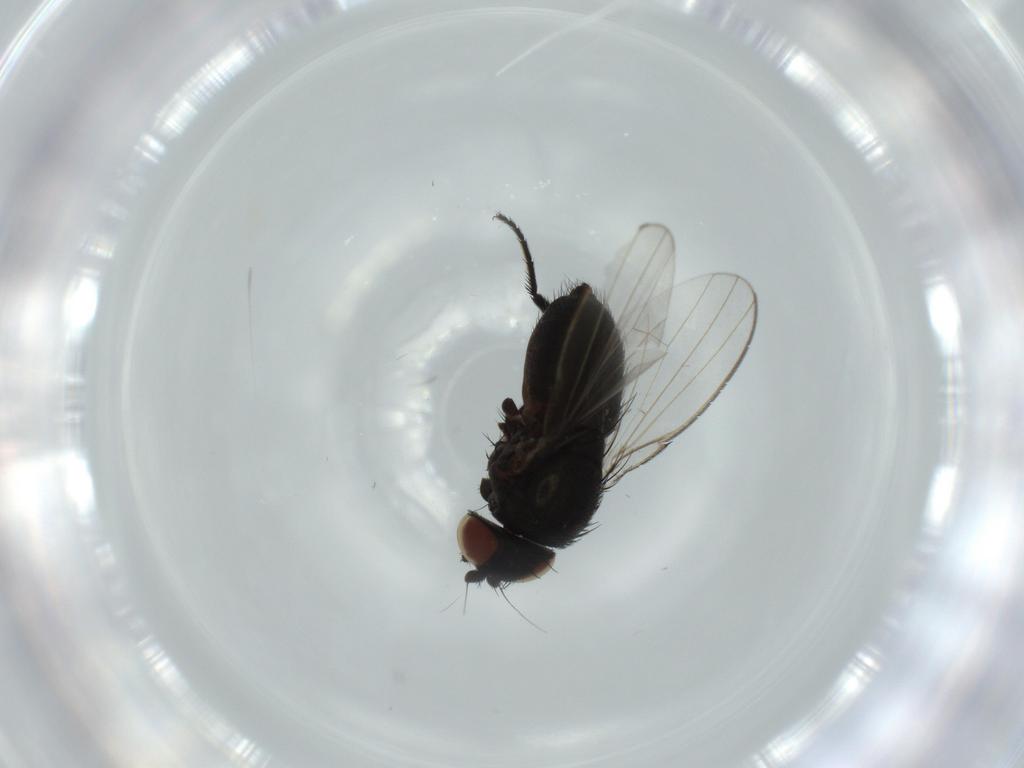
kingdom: Animalia
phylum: Arthropoda
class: Insecta
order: Diptera
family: Milichiidae
